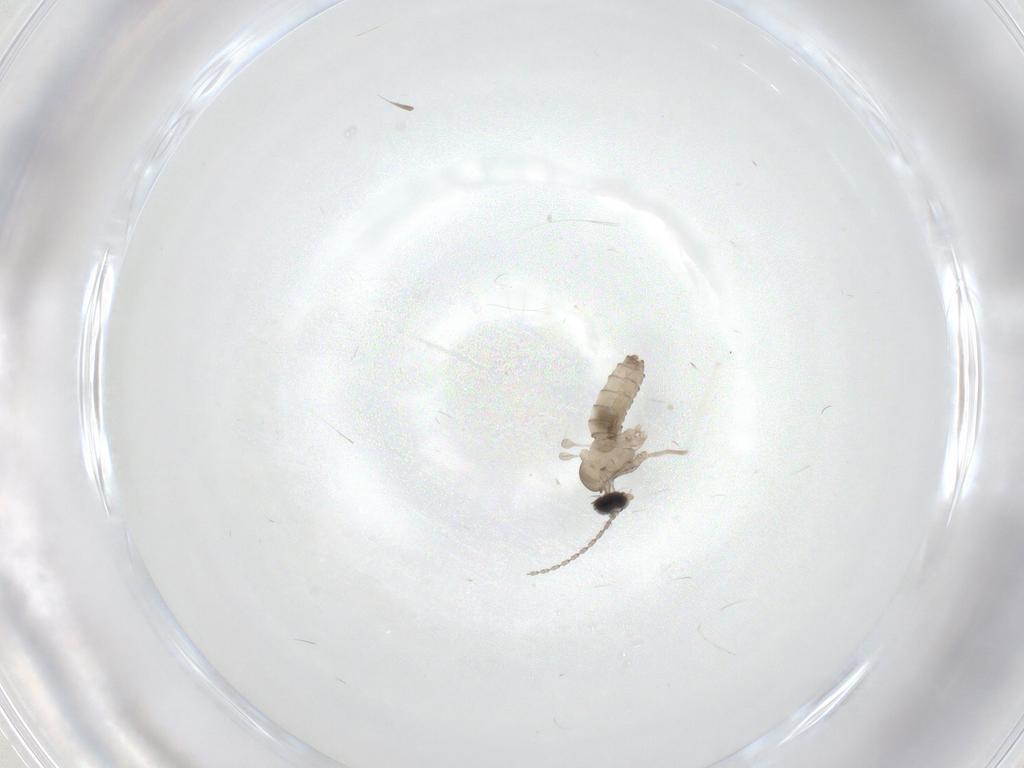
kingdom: Animalia
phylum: Arthropoda
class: Insecta
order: Diptera
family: Cecidomyiidae
